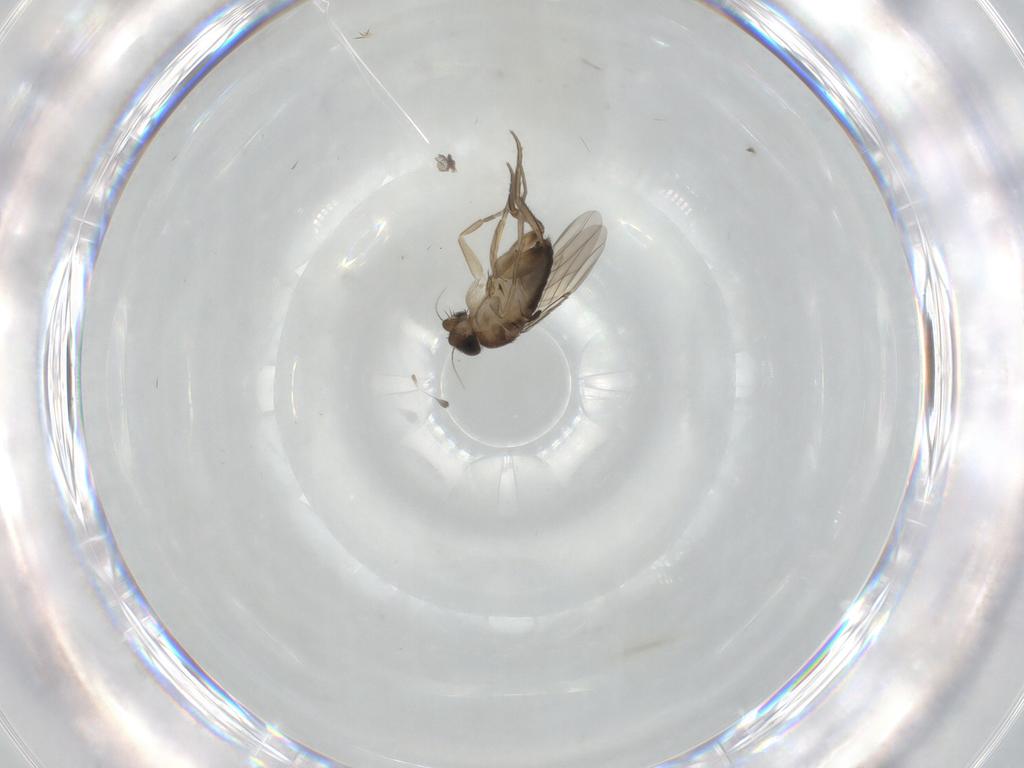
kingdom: Animalia
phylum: Arthropoda
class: Insecta
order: Diptera
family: Phoridae
